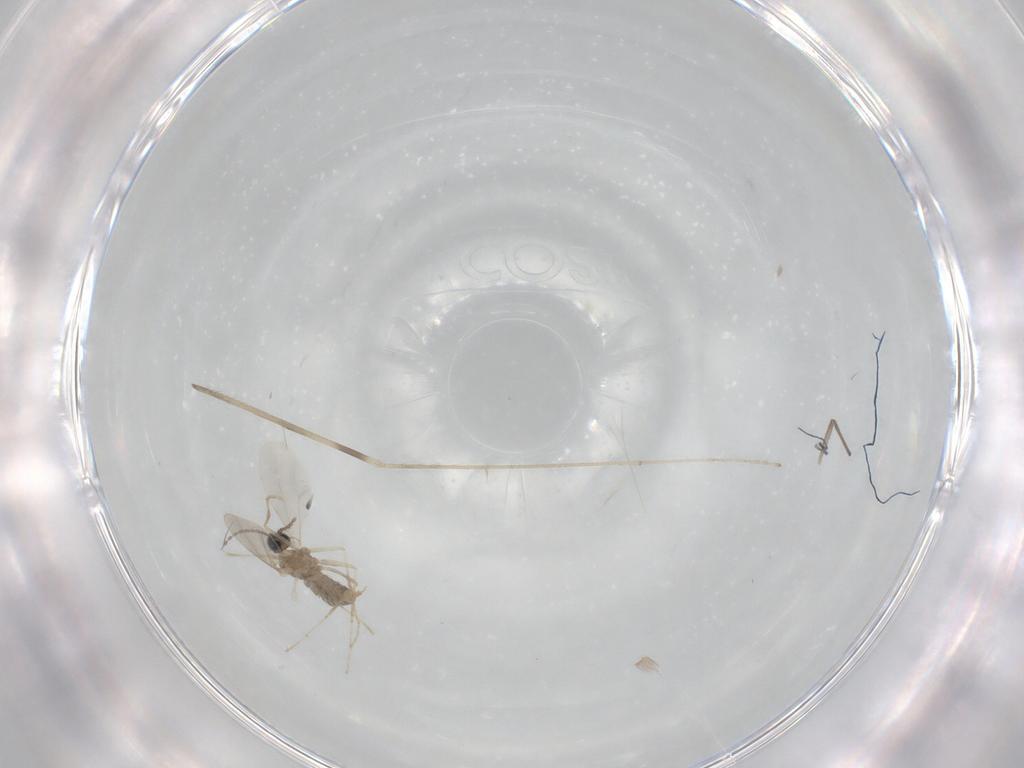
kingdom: Animalia
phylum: Arthropoda
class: Insecta
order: Diptera
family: Cecidomyiidae
